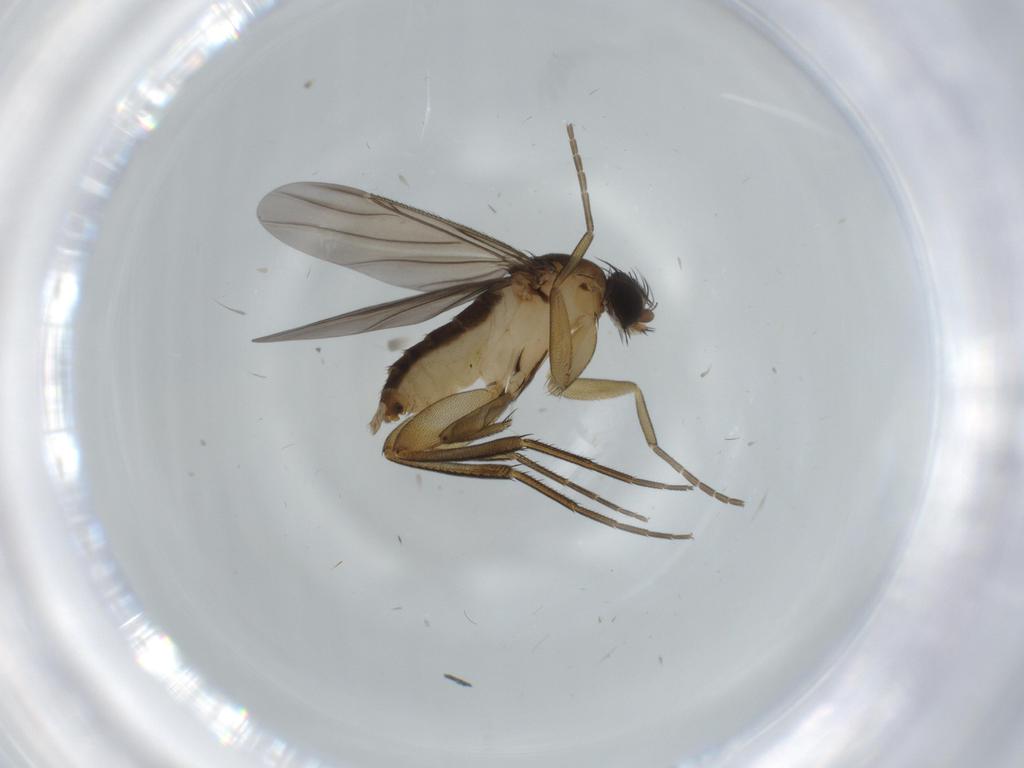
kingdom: Animalia
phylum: Arthropoda
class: Insecta
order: Diptera
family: Phoridae
